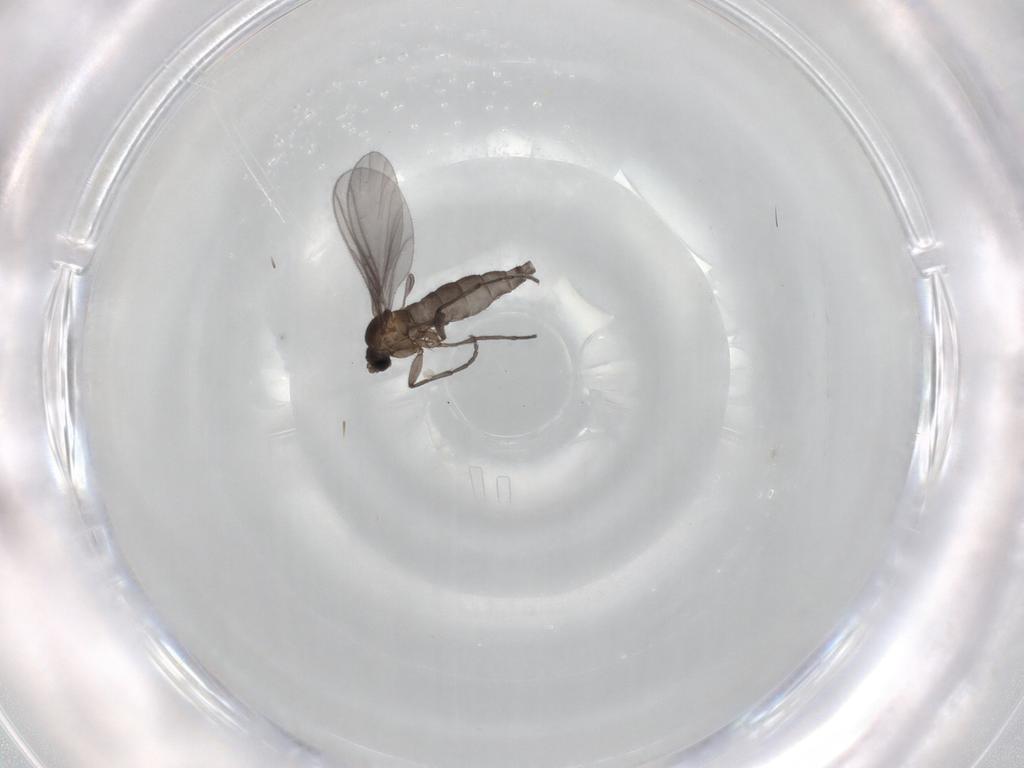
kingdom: Animalia
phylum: Arthropoda
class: Insecta
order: Diptera
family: Sciaridae
